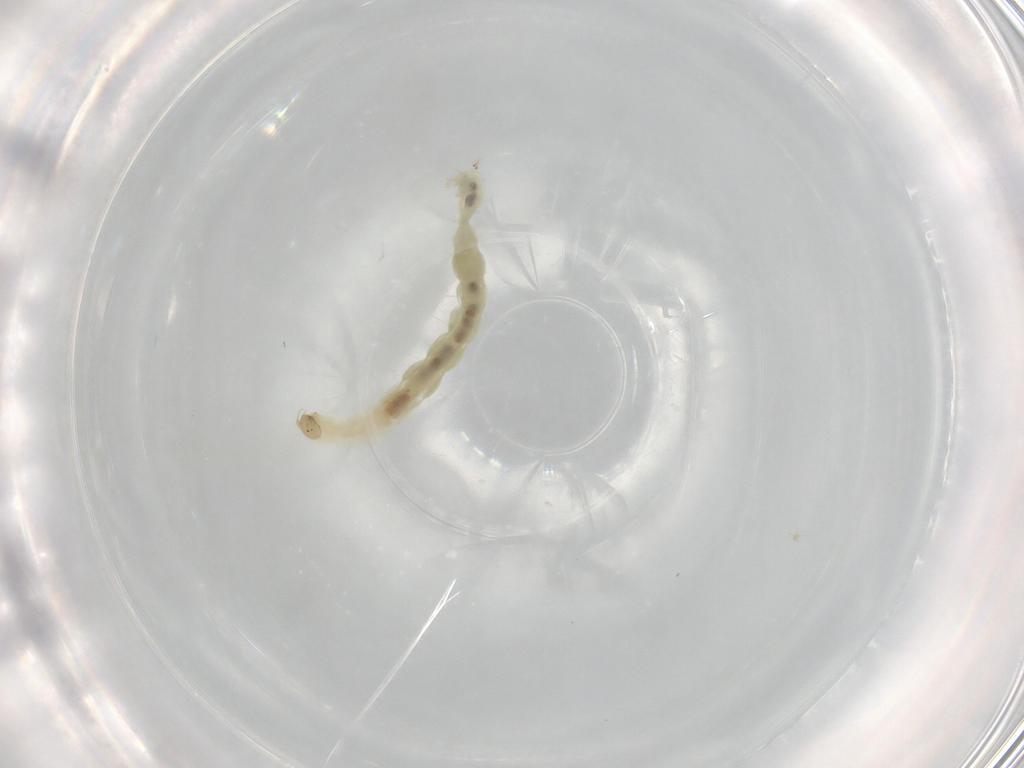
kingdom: Animalia
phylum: Arthropoda
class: Insecta
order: Diptera
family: Chironomidae
